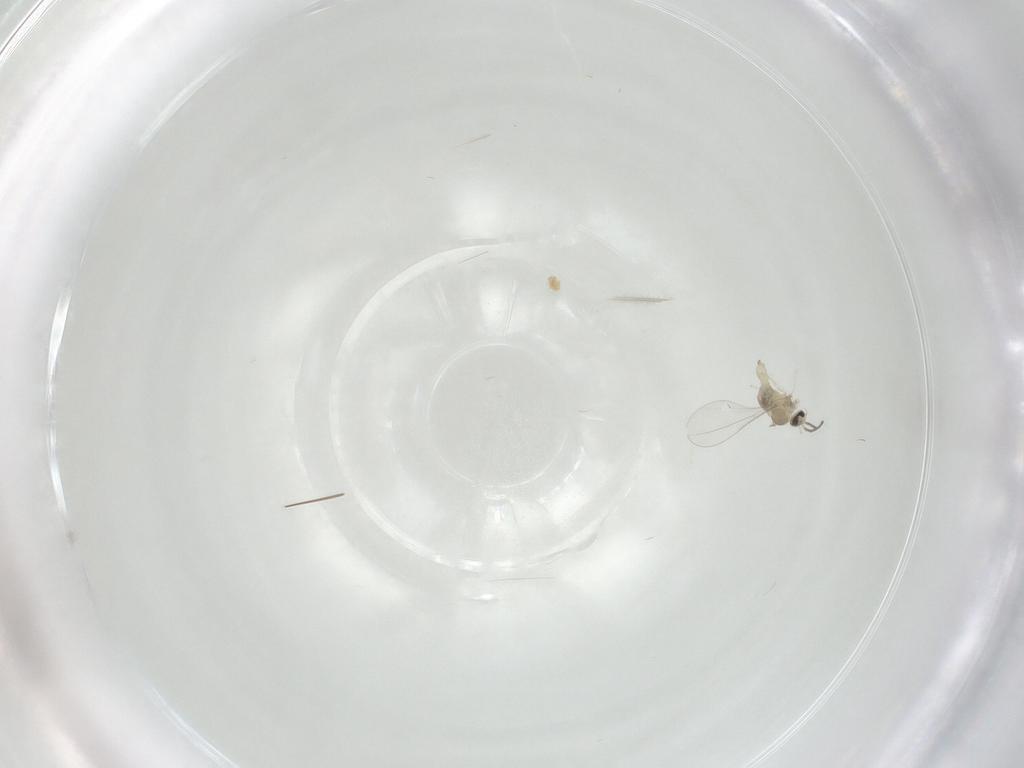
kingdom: Animalia
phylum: Arthropoda
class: Insecta
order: Diptera
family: Cecidomyiidae
